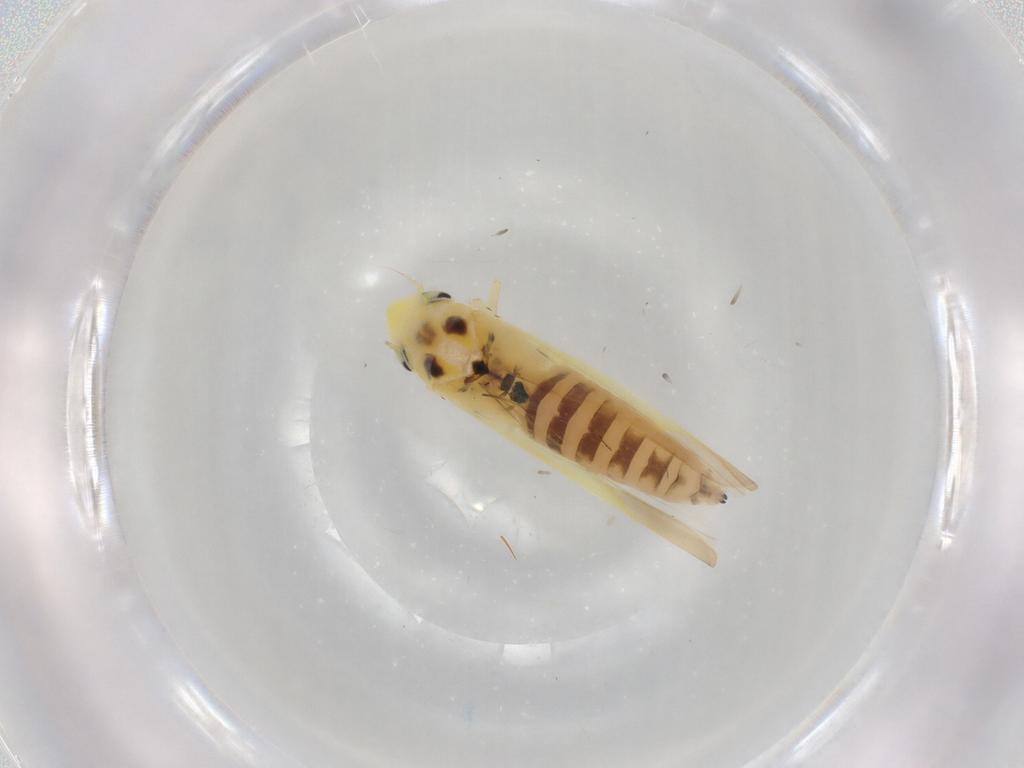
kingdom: Animalia
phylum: Arthropoda
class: Insecta
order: Hemiptera
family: Cicadellidae
